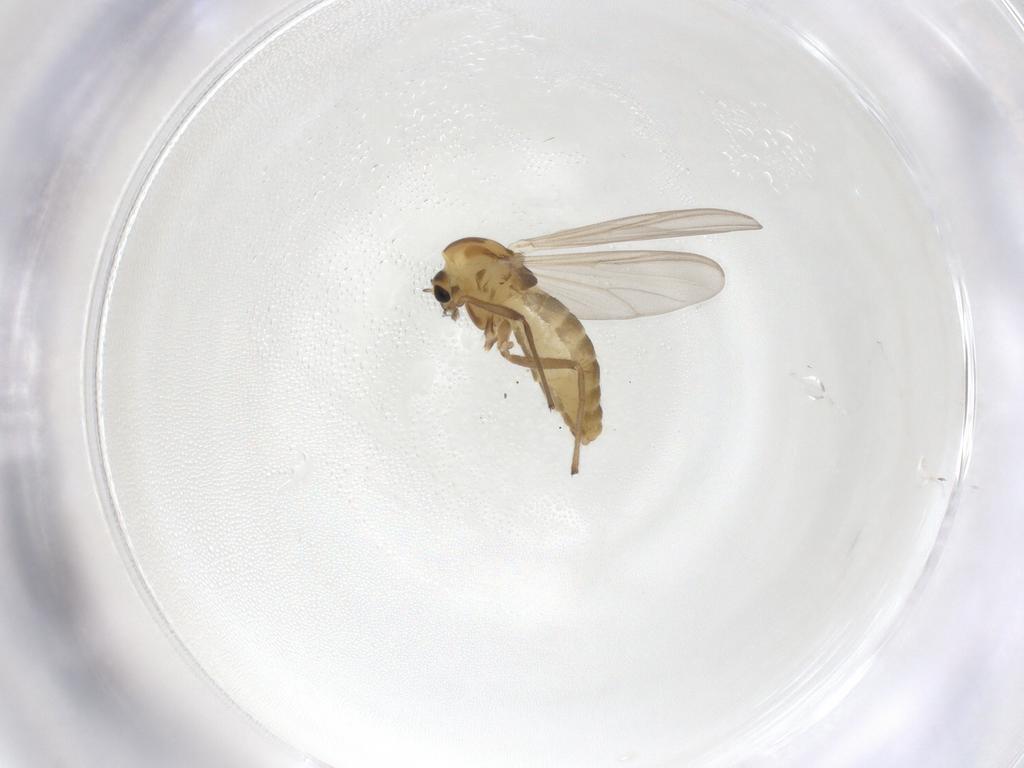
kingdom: Animalia
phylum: Arthropoda
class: Insecta
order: Diptera
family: Chironomidae
